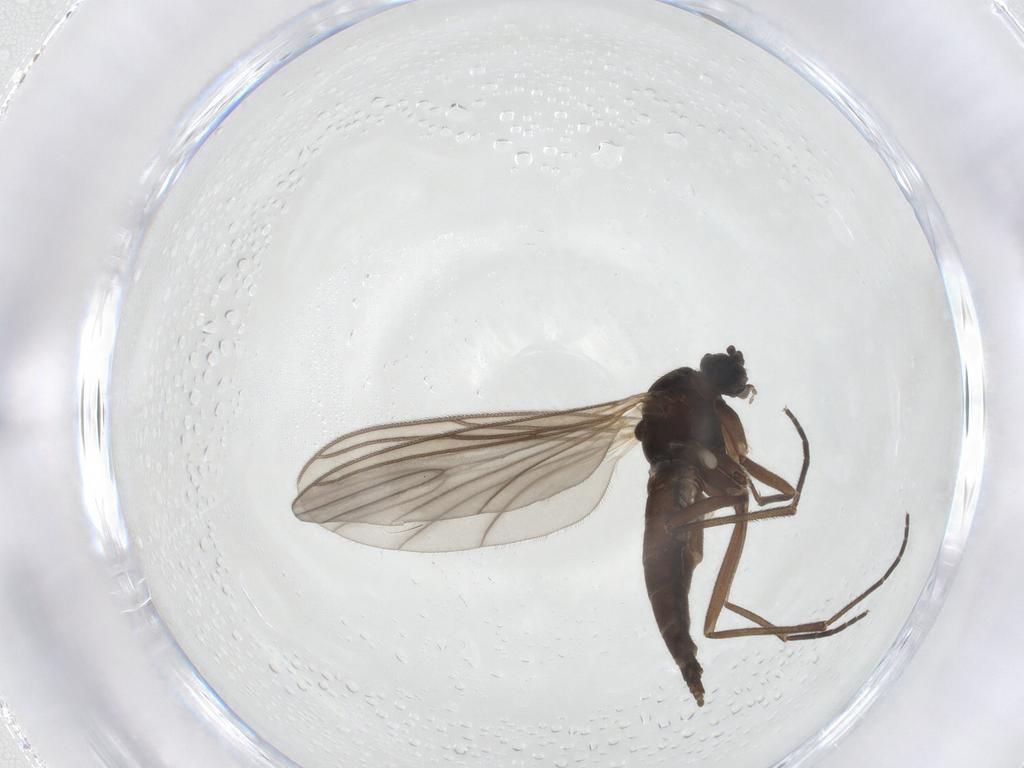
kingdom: Animalia
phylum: Arthropoda
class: Insecta
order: Diptera
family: Sciaridae
